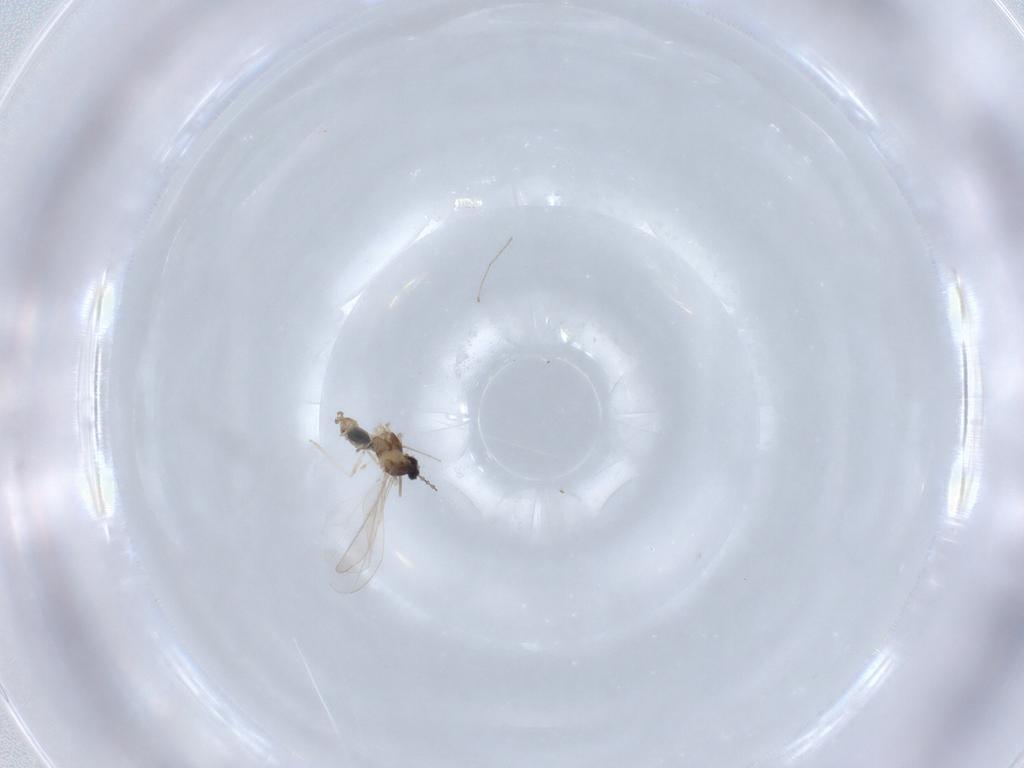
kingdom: Animalia
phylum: Arthropoda
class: Insecta
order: Diptera
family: Cecidomyiidae
